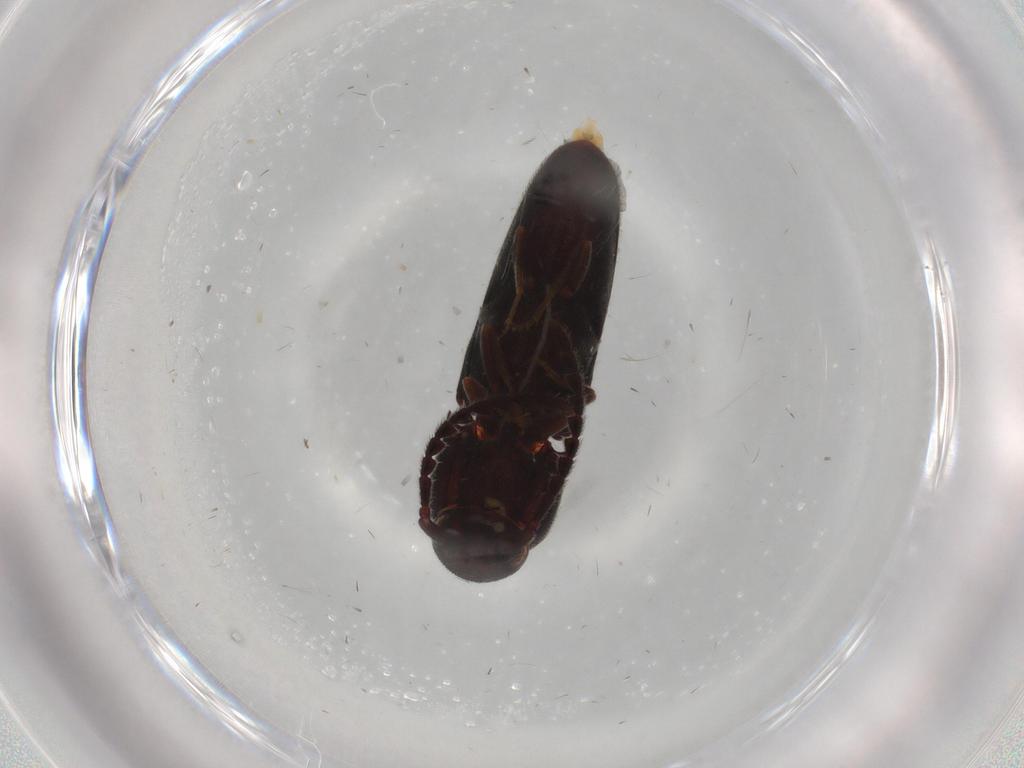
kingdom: Animalia
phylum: Arthropoda
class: Insecta
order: Coleoptera
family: Eucnemidae
